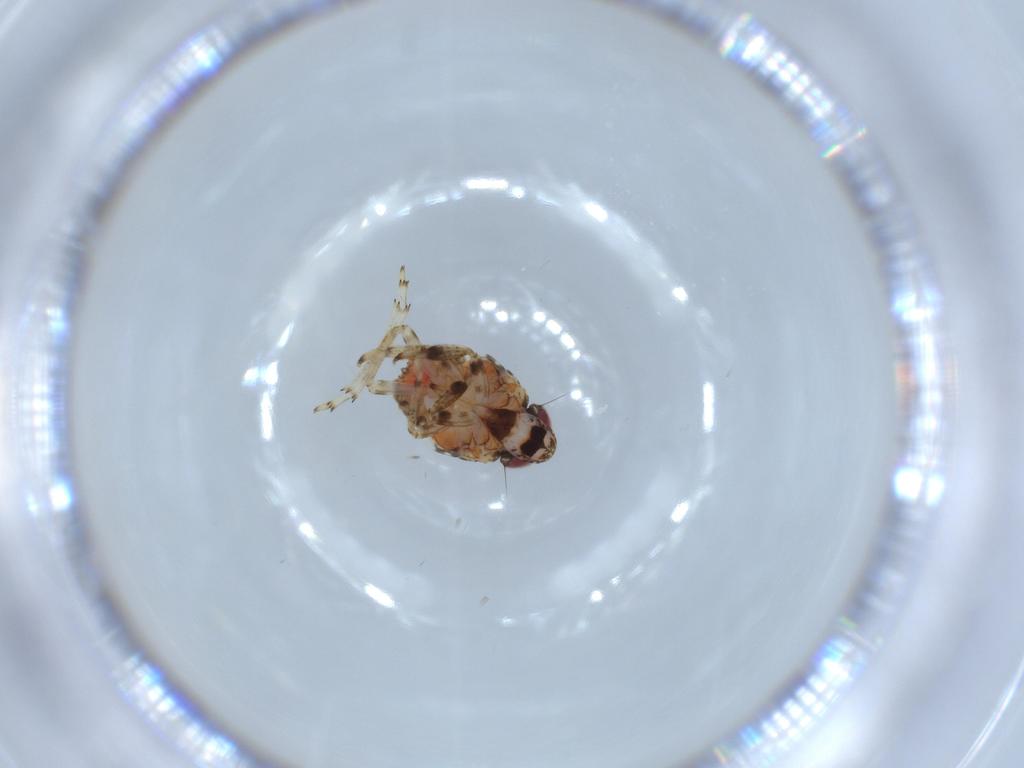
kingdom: Animalia
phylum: Arthropoda
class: Insecta
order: Hemiptera
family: Issidae
